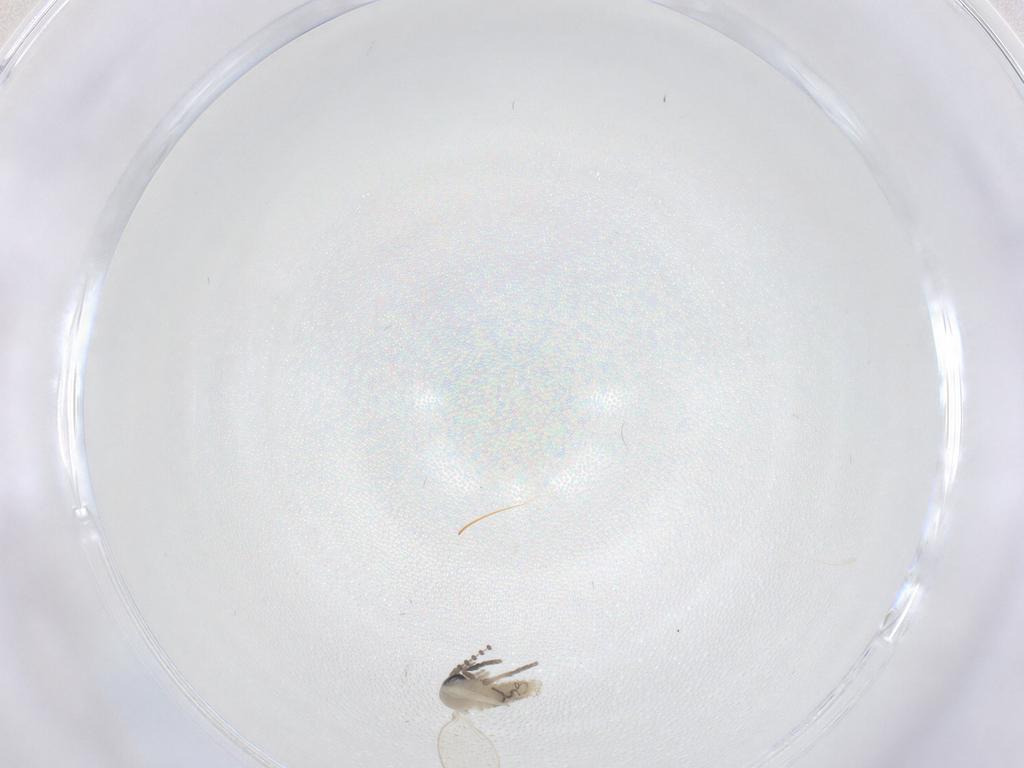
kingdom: Animalia
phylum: Arthropoda
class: Insecta
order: Diptera
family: Psychodidae
